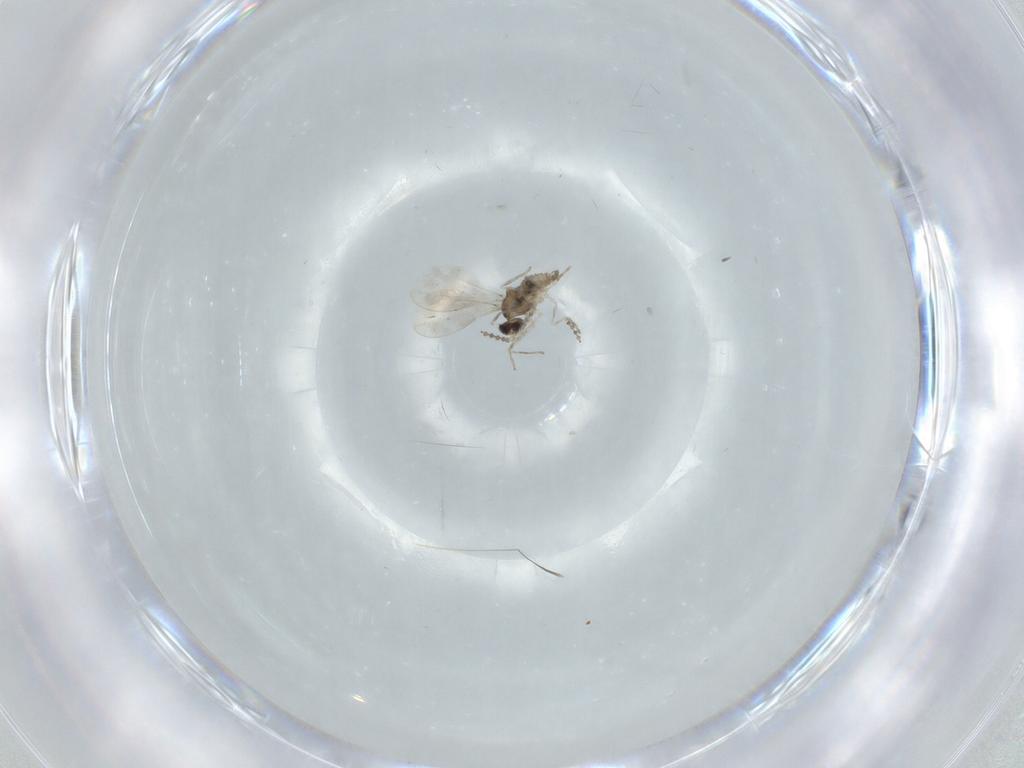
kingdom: Animalia
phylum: Arthropoda
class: Insecta
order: Diptera
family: Cecidomyiidae
